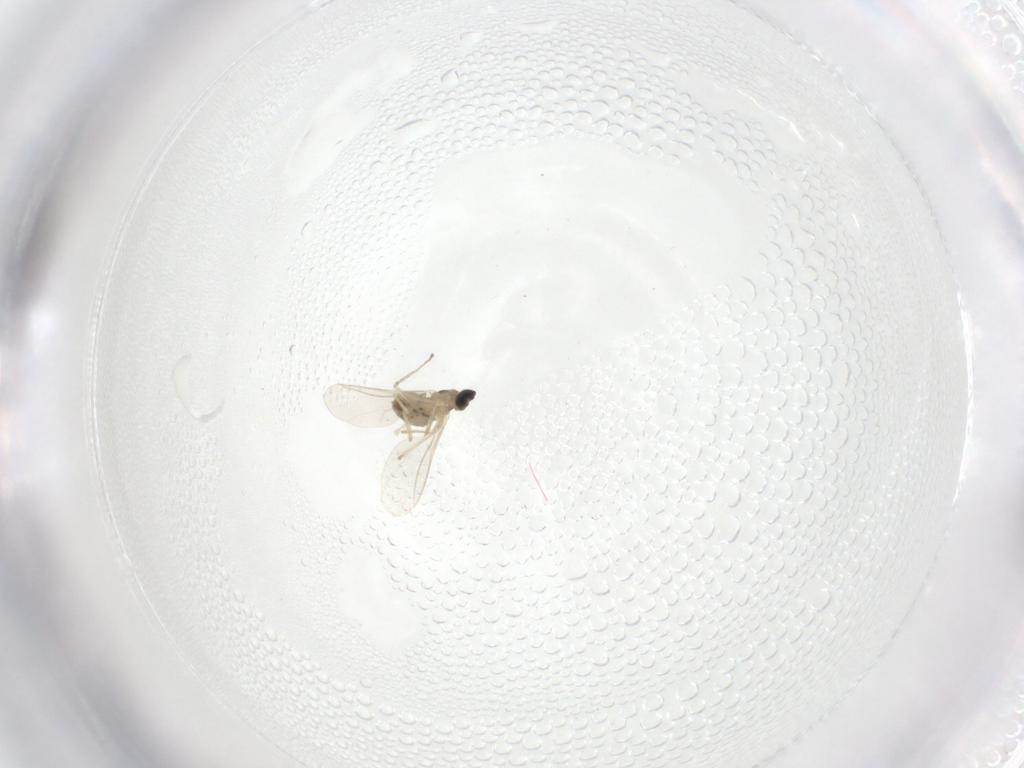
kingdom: Animalia
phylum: Arthropoda
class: Insecta
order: Diptera
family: Cecidomyiidae
